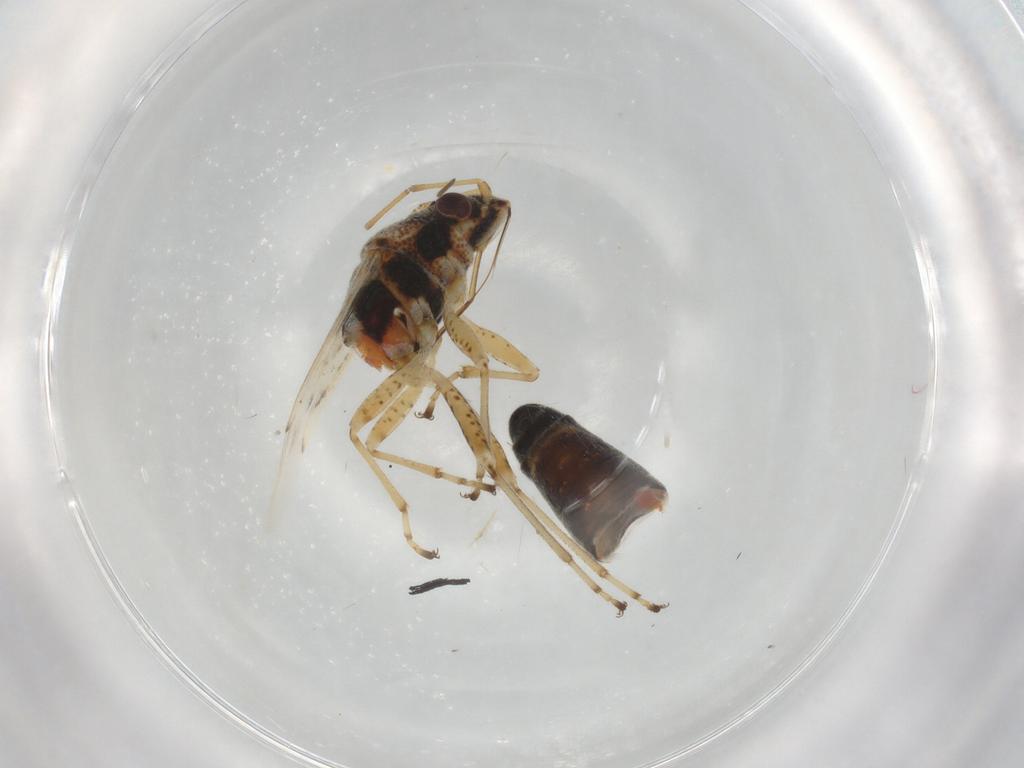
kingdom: Animalia
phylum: Arthropoda
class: Insecta
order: Hemiptera
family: Lygaeidae
